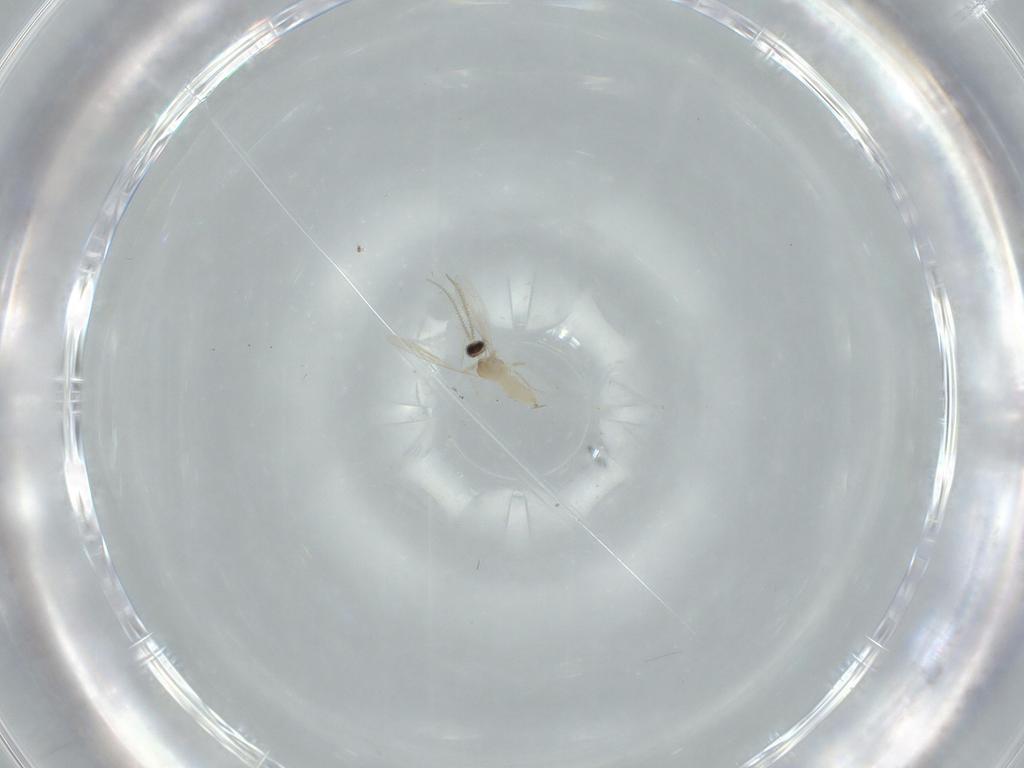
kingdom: Animalia
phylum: Arthropoda
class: Insecta
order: Diptera
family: Cecidomyiidae
